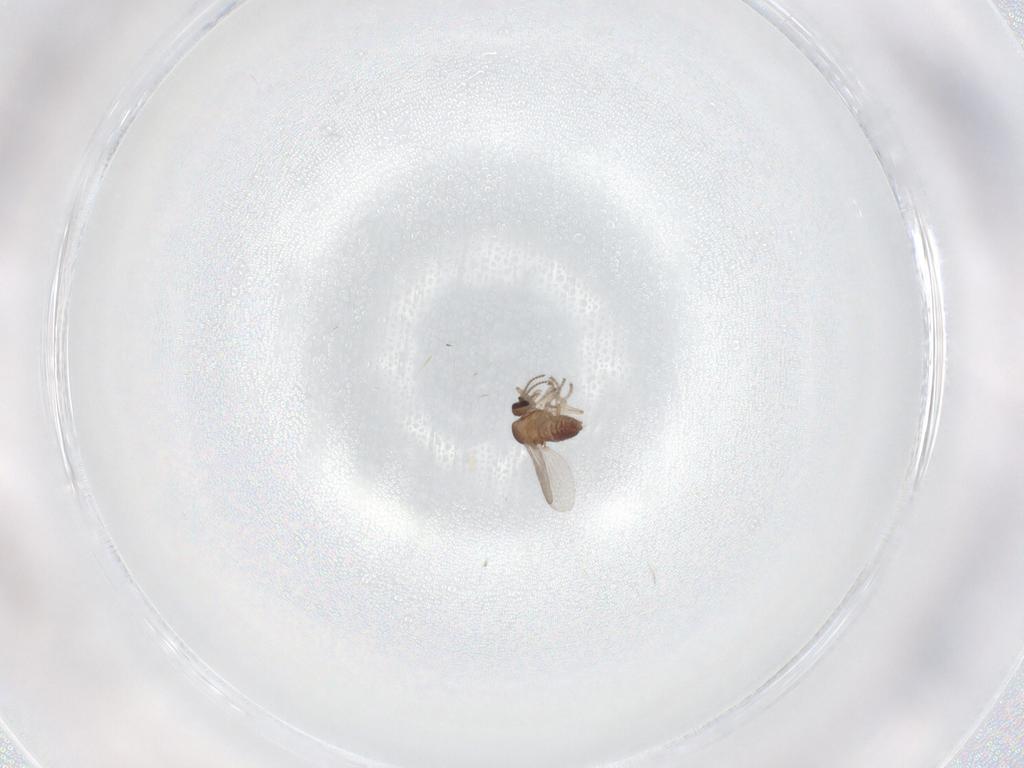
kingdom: Animalia
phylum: Arthropoda
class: Insecta
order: Diptera
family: Ceratopogonidae
